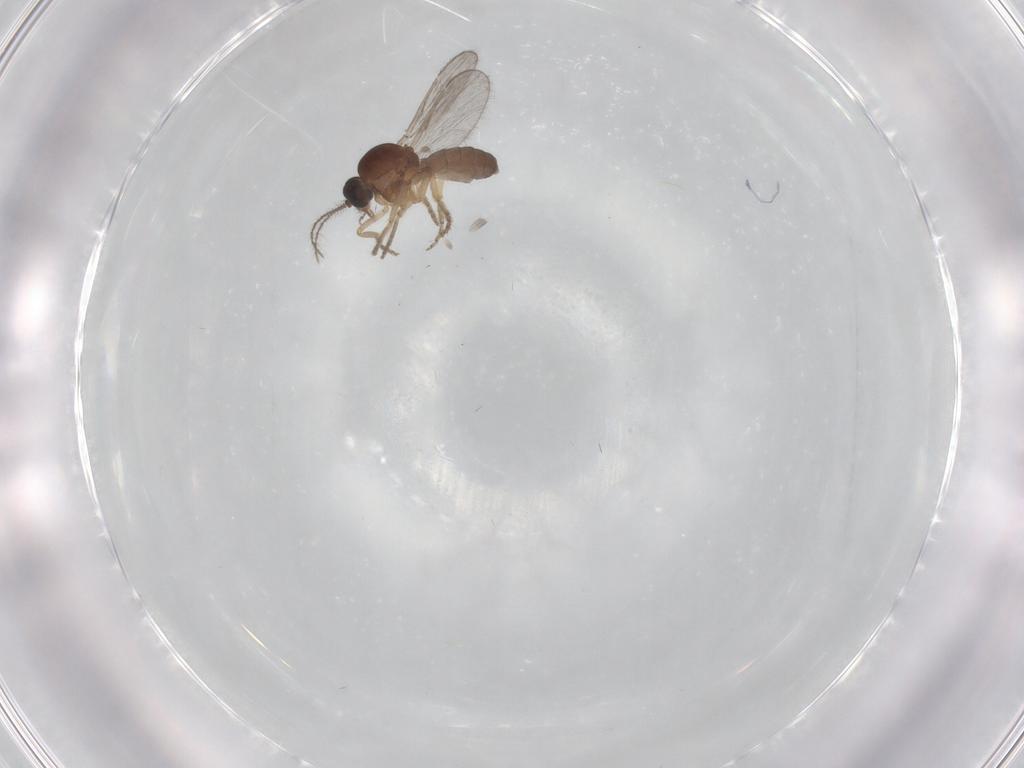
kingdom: Animalia
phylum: Arthropoda
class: Insecta
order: Diptera
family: Ceratopogonidae
